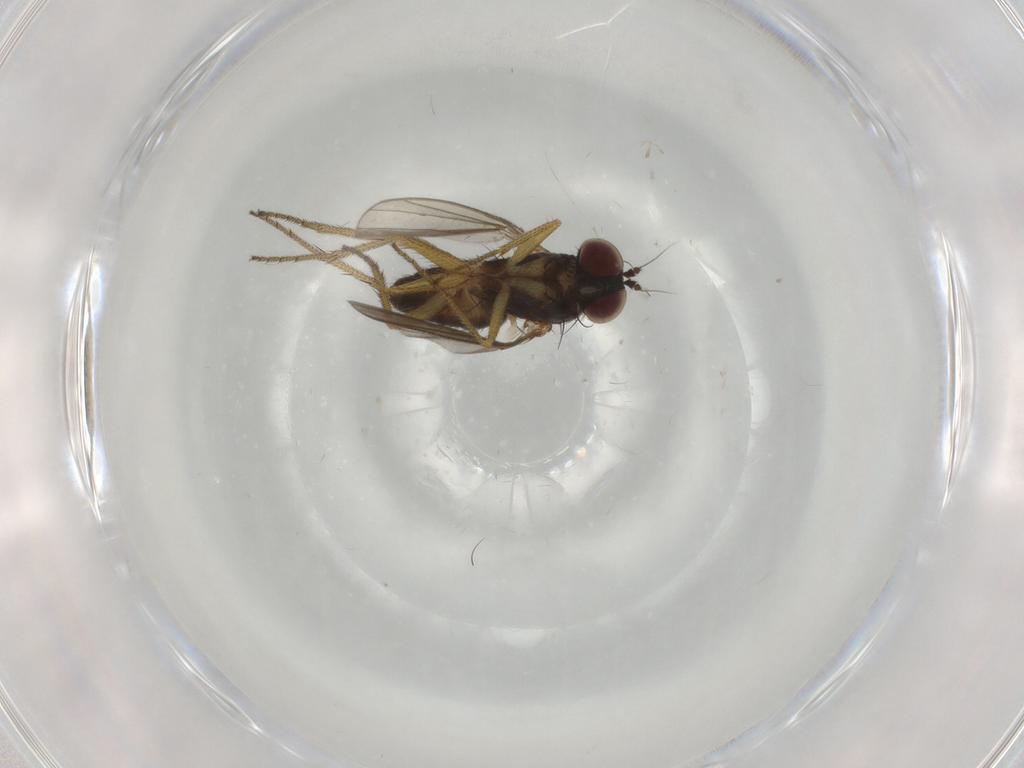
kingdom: Animalia
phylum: Arthropoda
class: Insecta
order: Diptera
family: Dolichopodidae
